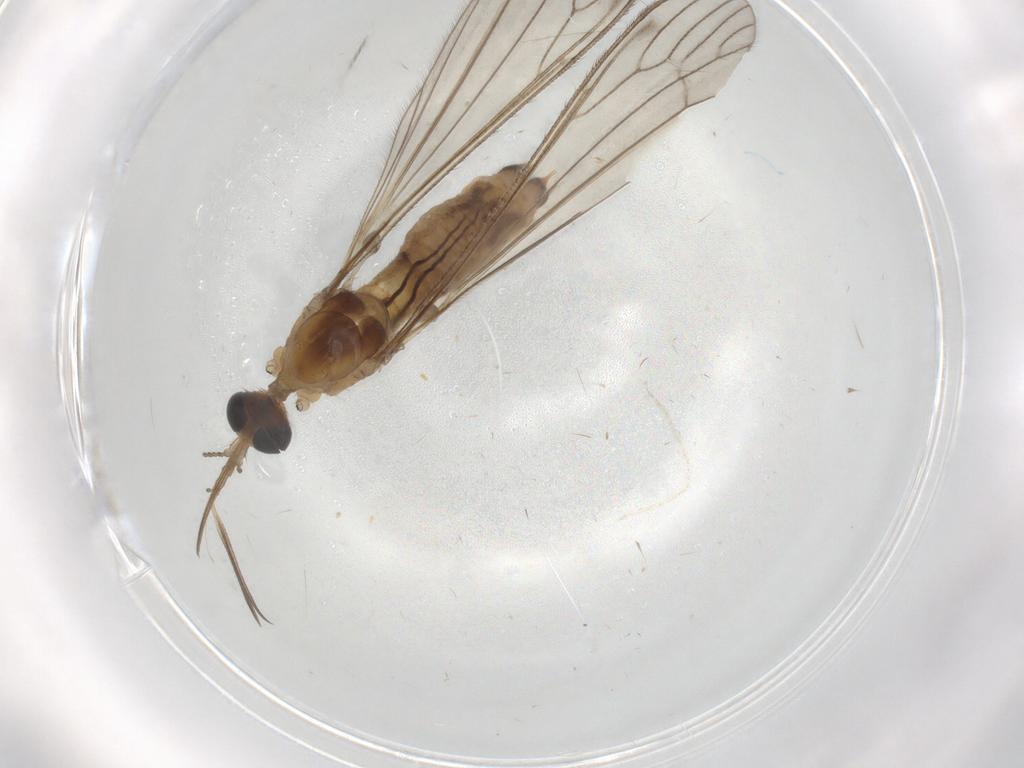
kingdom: Animalia
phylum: Arthropoda
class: Insecta
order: Diptera
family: Limoniidae
